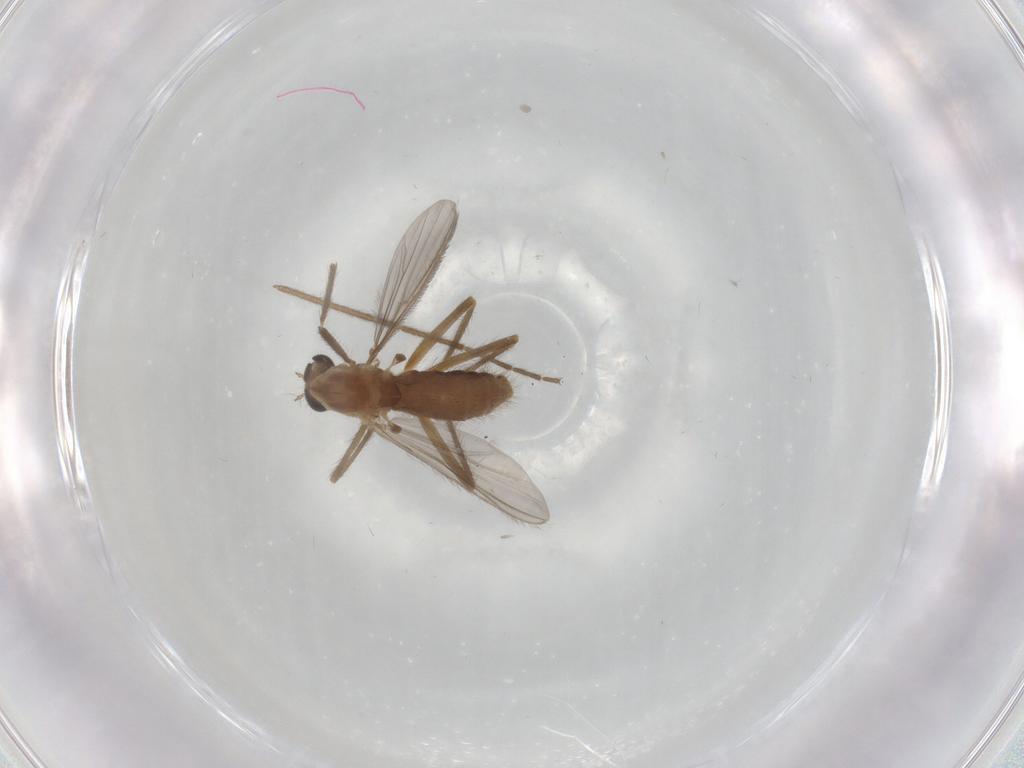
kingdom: Animalia
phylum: Arthropoda
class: Insecta
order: Diptera
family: Chironomidae
